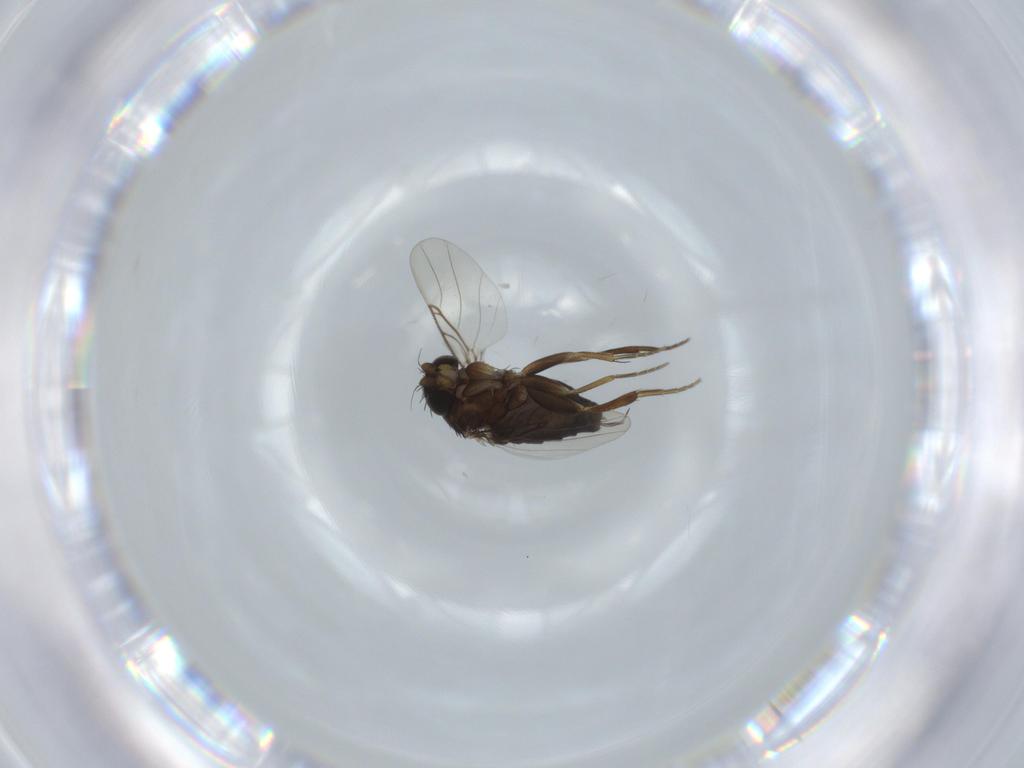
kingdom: Animalia
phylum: Arthropoda
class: Insecta
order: Diptera
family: Phoridae
